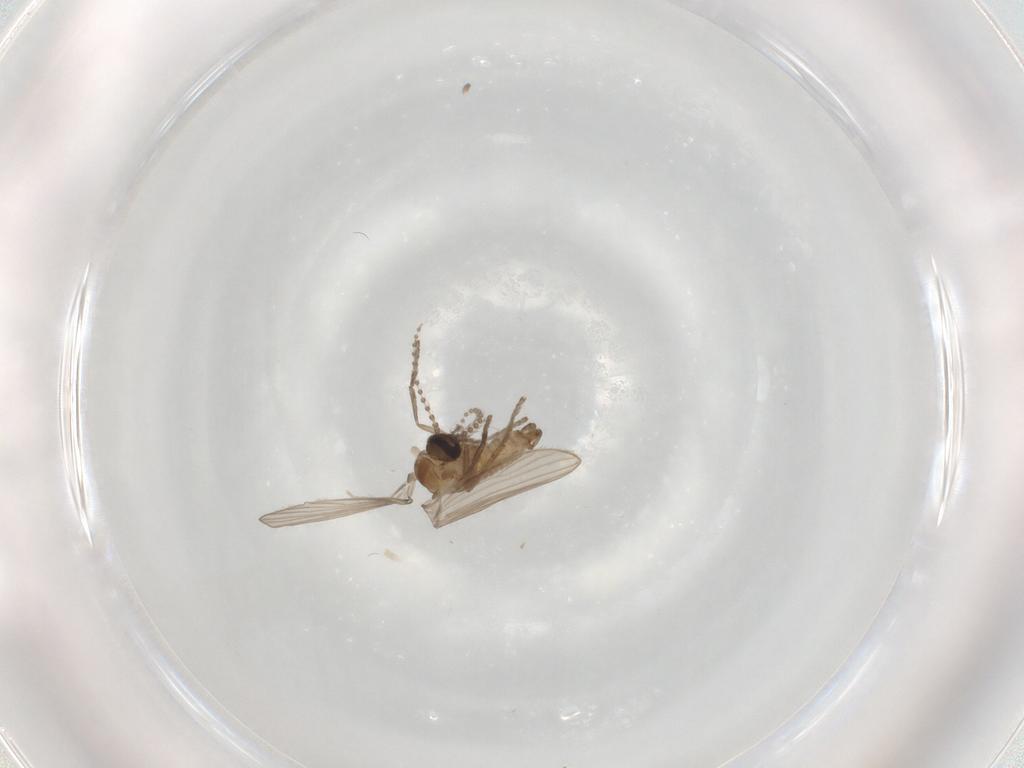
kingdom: Animalia
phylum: Arthropoda
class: Insecta
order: Diptera
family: Psychodidae
